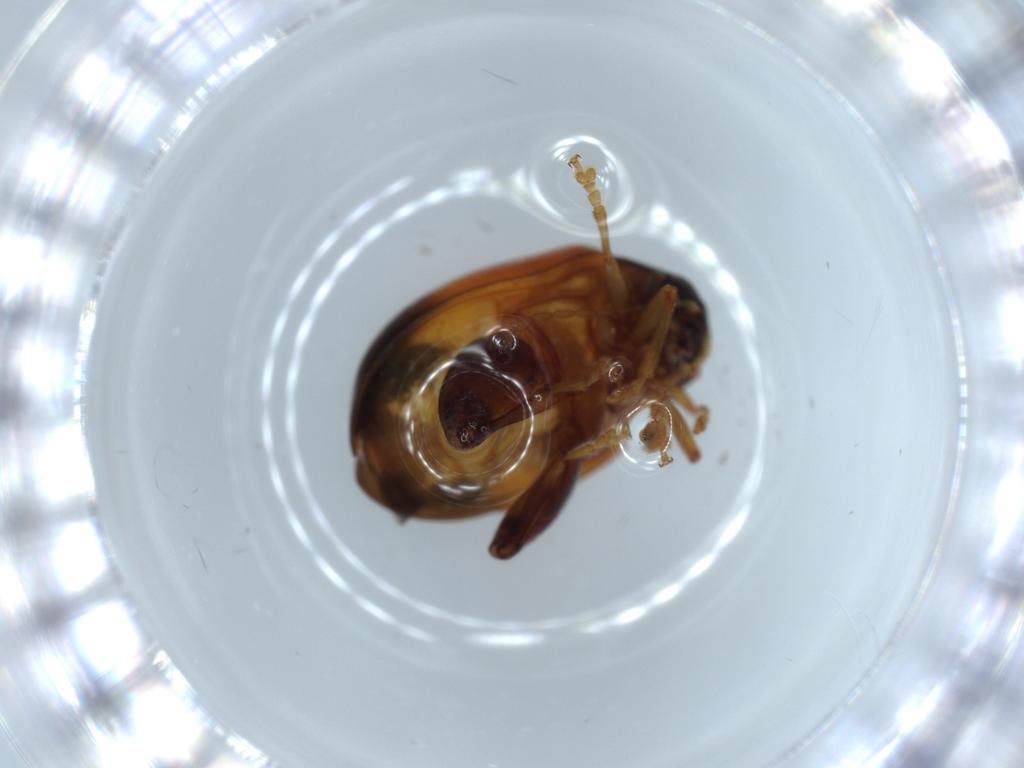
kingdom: Animalia
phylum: Arthropoda
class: Insecta
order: Coleoptera
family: Chrysomelidae
